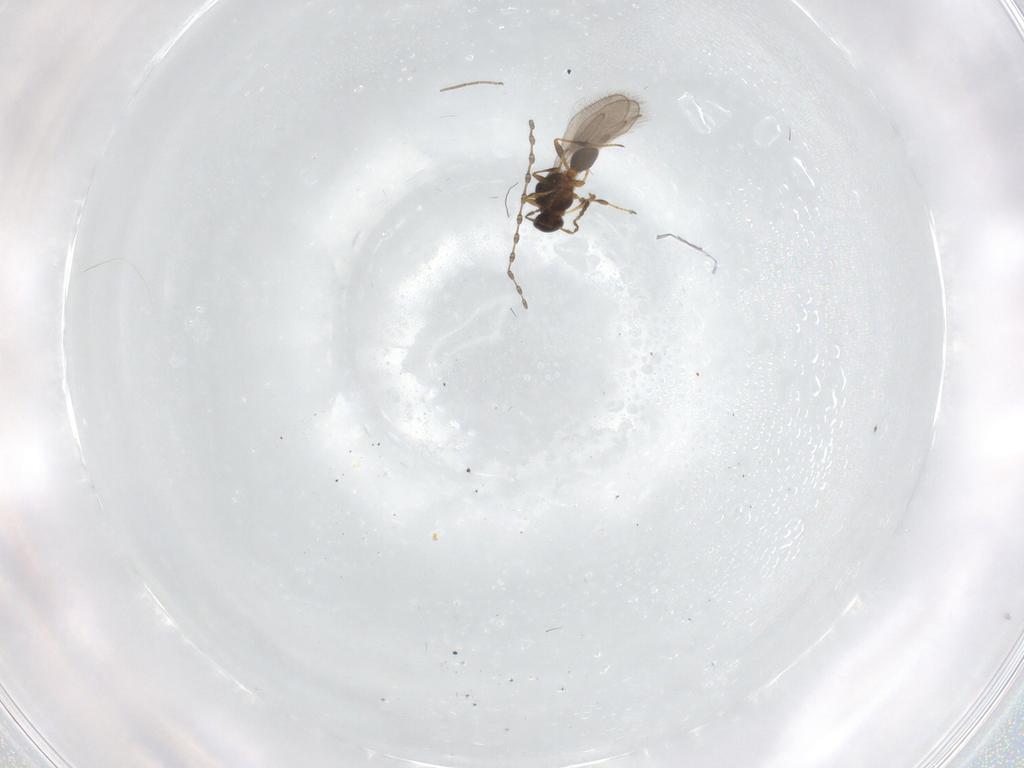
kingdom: Animalia
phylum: Arthropoda
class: Insecta
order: Hymenoptera
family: Platygastridae
